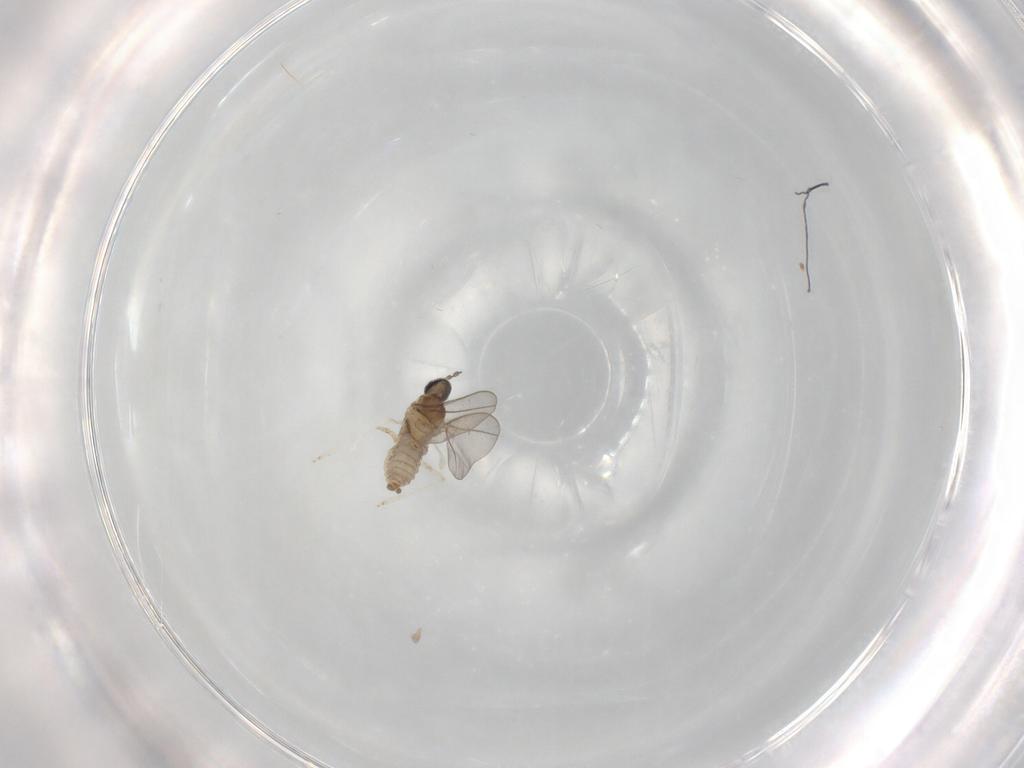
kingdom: Animalia
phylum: Arthropoda
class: Insecta
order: Diptera
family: Cecidomyiidae
